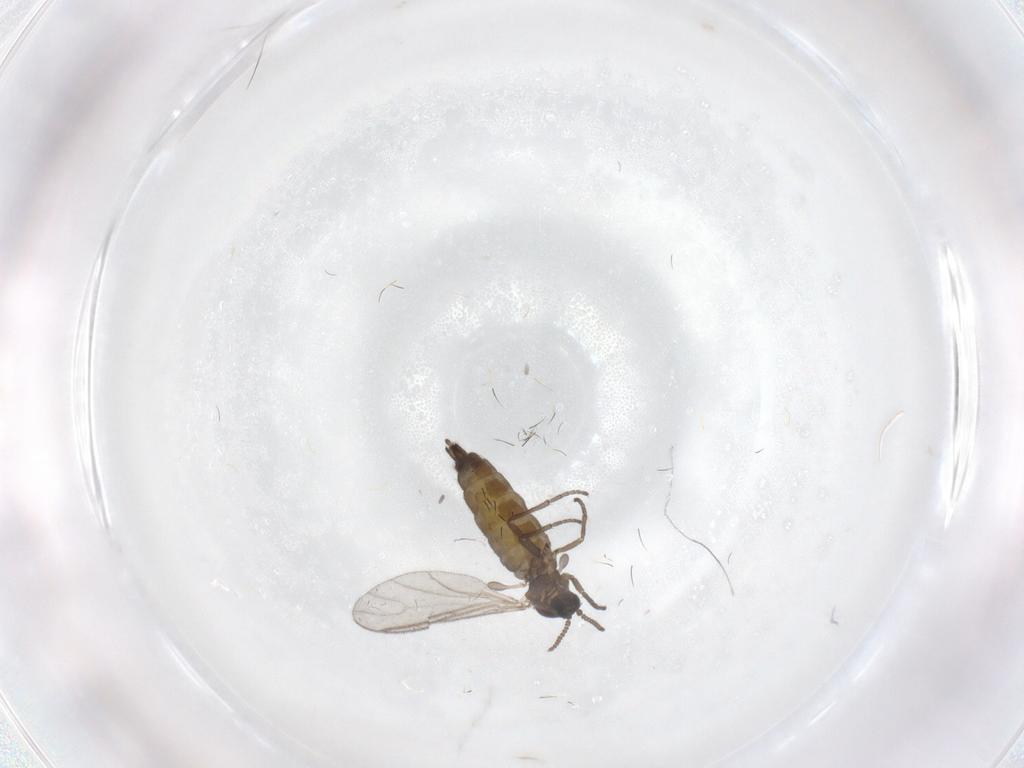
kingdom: Animalia
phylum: Arthropoda
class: Insecta
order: Diptera
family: Sciaridae
